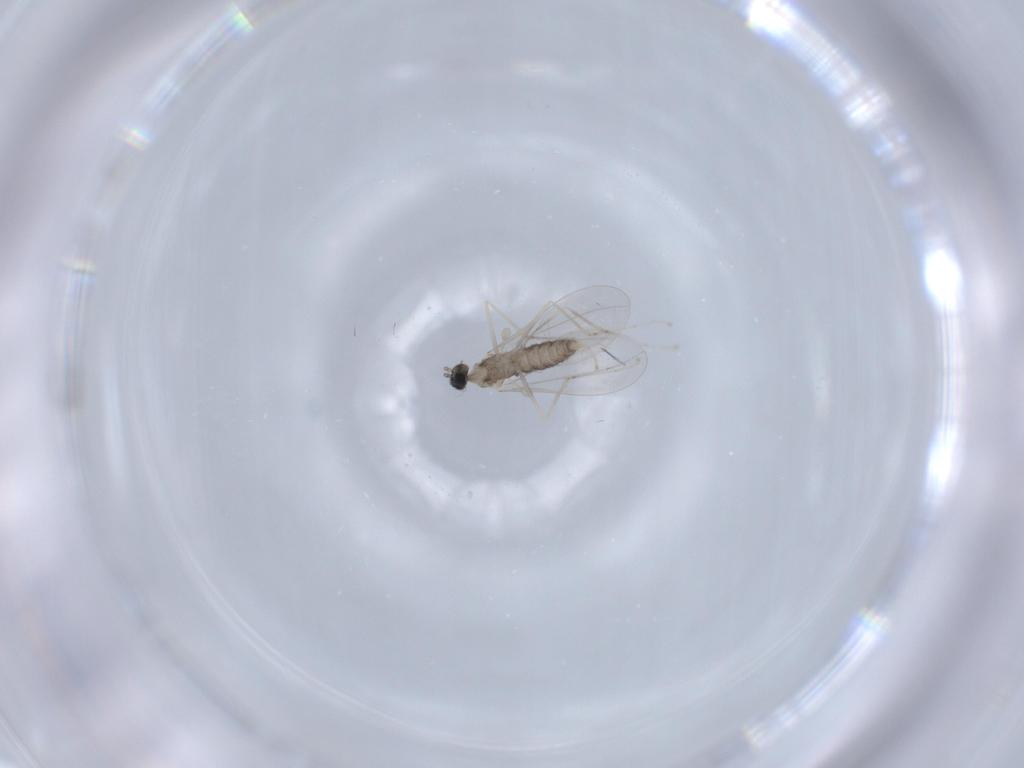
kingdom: Animalia
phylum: Arthropoda
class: Insecta
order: Diptera
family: Cecidomyiidae
